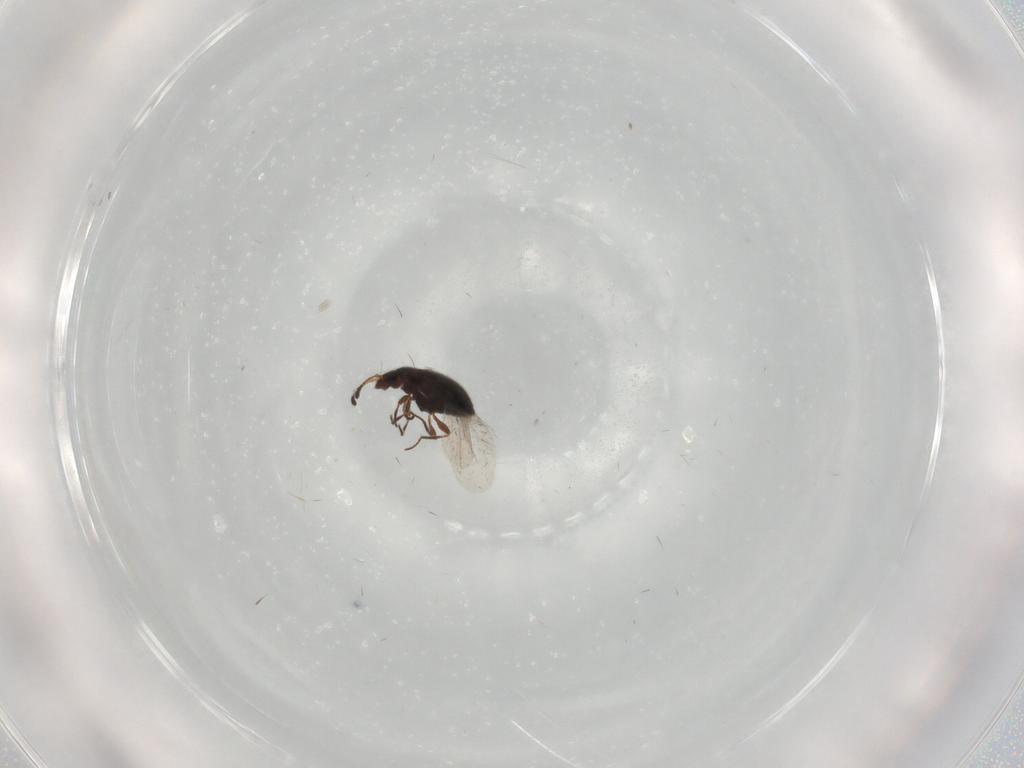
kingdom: Animalia
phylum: Arthropoda
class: Insecta
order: Coleoptera
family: Cryptophagidae
